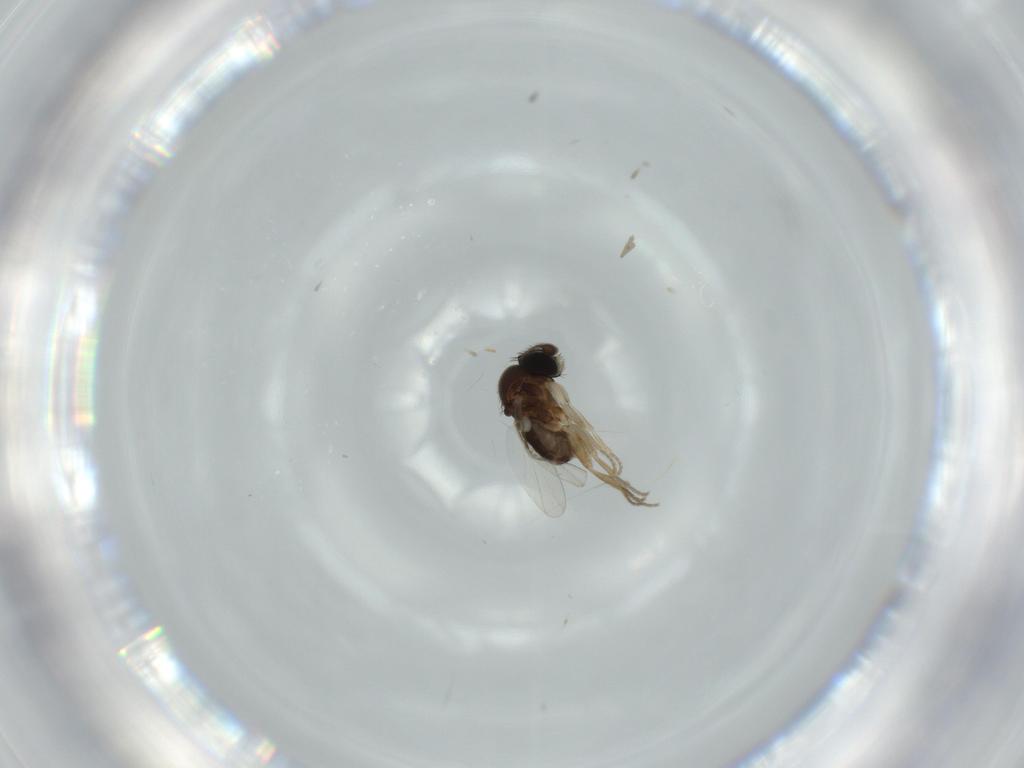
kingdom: Animalia
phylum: Arthropoda
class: Insecta
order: Diptera
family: Phoridae
